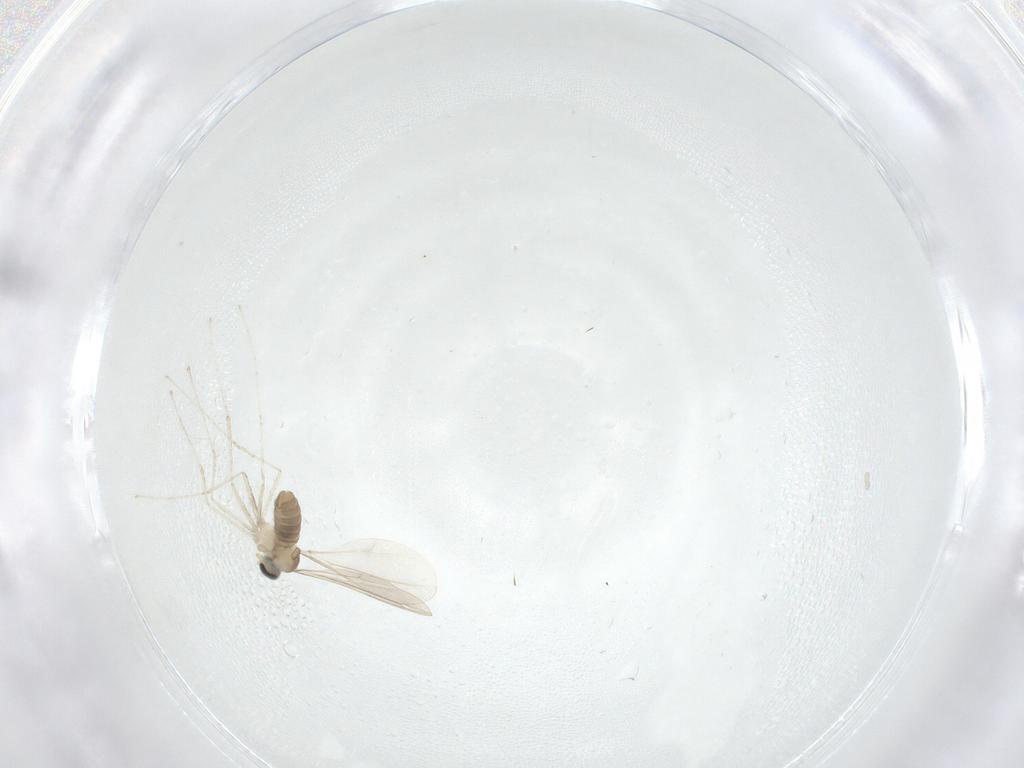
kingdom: Animalia
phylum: Arthropoda
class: Insecta
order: Diptera
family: Cecidomyiidae
